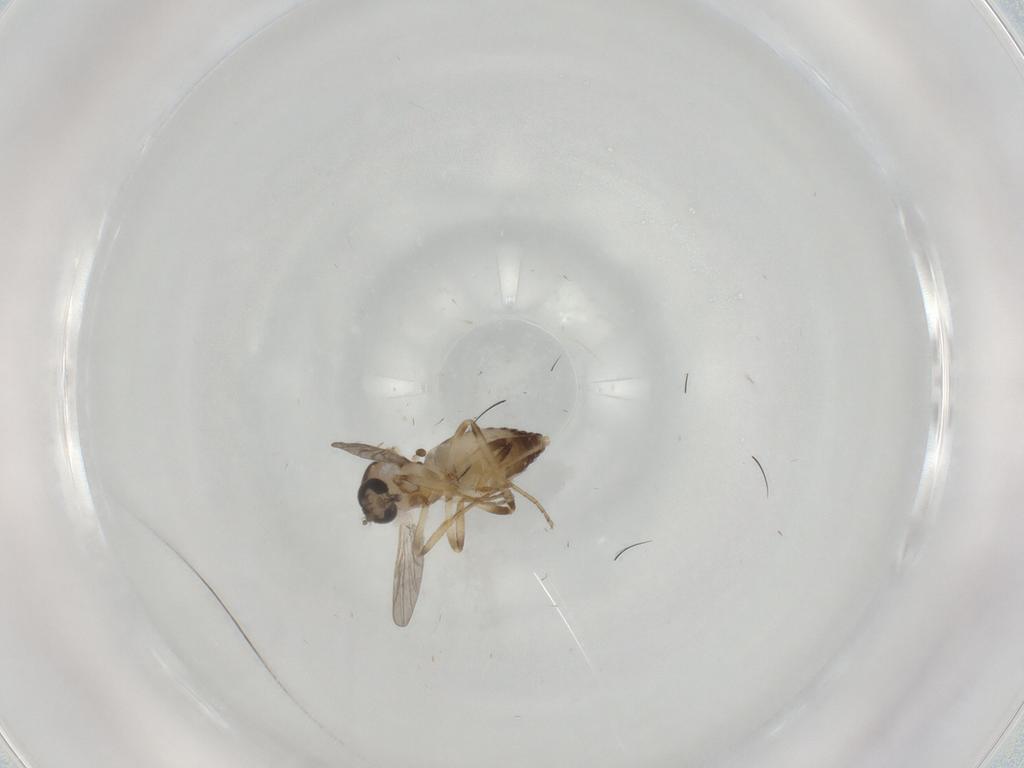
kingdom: Animalia
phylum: Arthropoda
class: Insecta
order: Diptera
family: Ceratopogonidae
